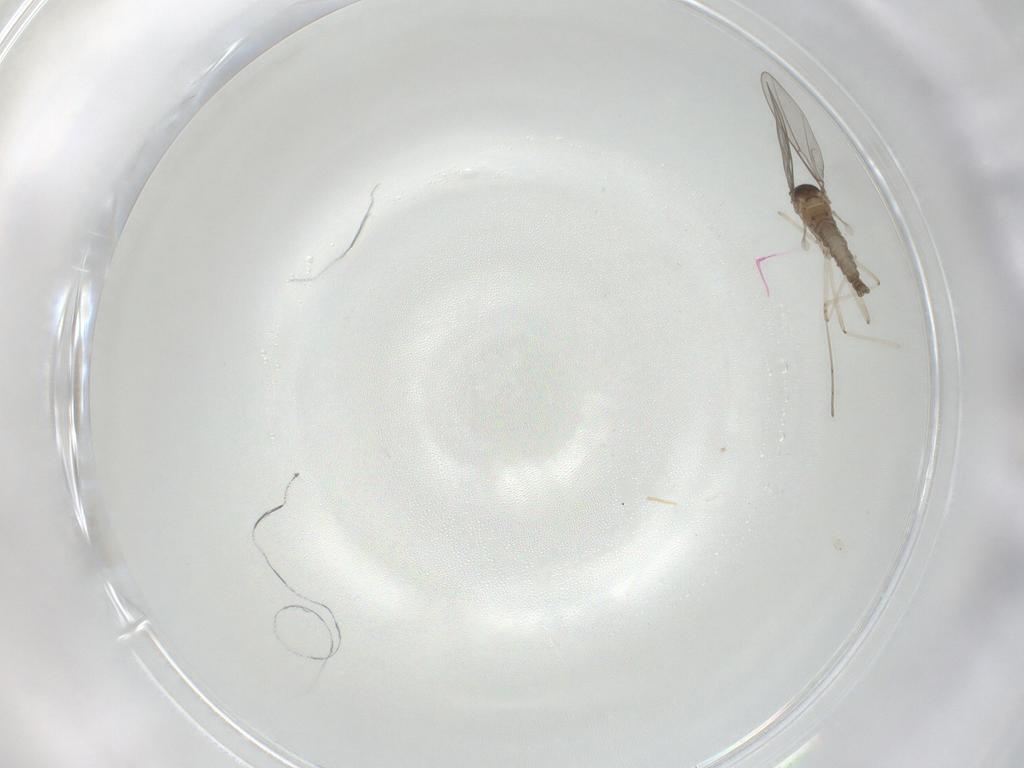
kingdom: Animalia
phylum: Arthropoda
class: Insecta
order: Diptera
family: Cecidomyiidae
